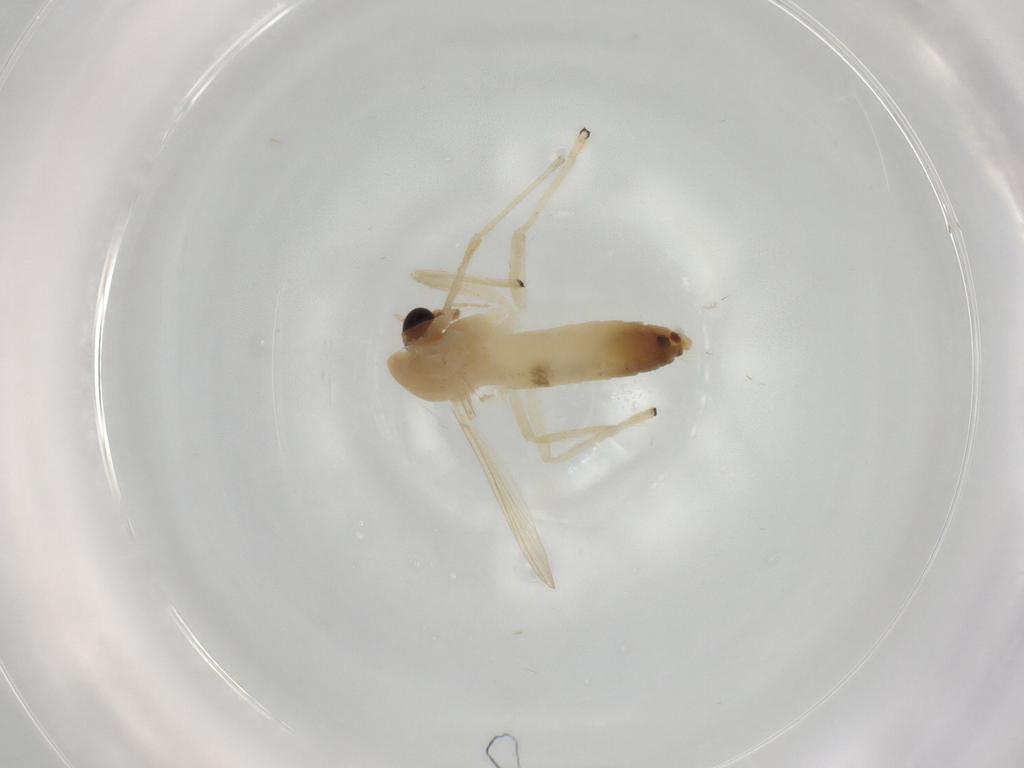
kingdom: Animalia
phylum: Arthropoda
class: Insecta
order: Diptera
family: Chironomidae
